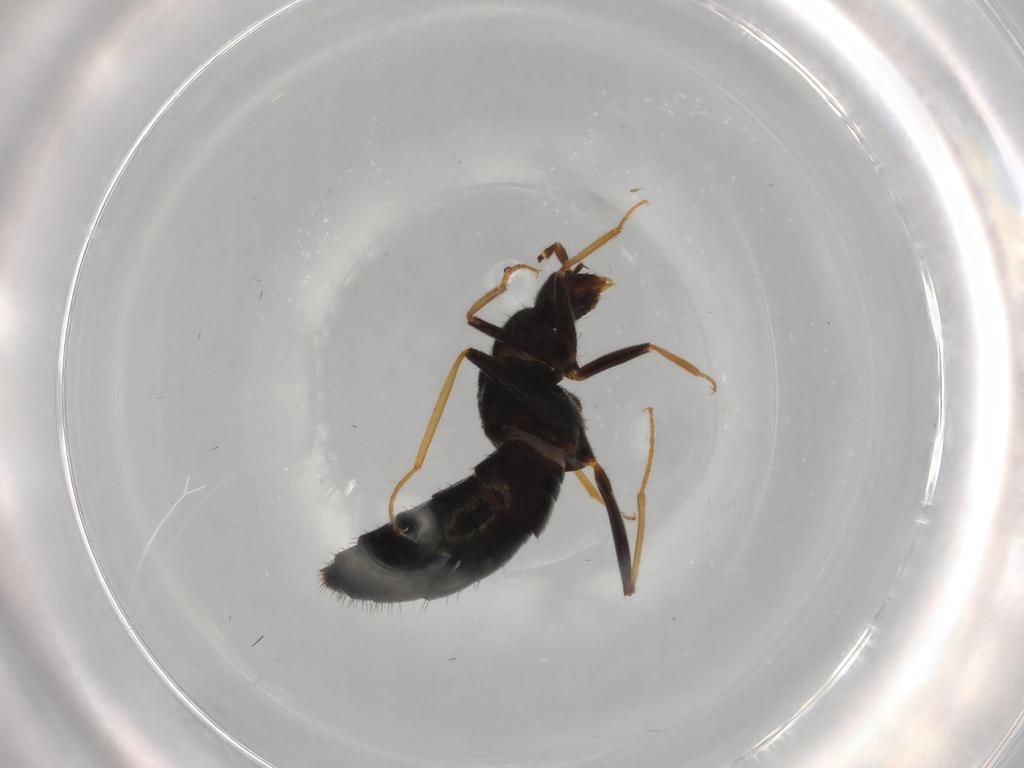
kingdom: Animalia
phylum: Arthropoda
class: Insecta
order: Coleoptera
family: Staphylinidae
